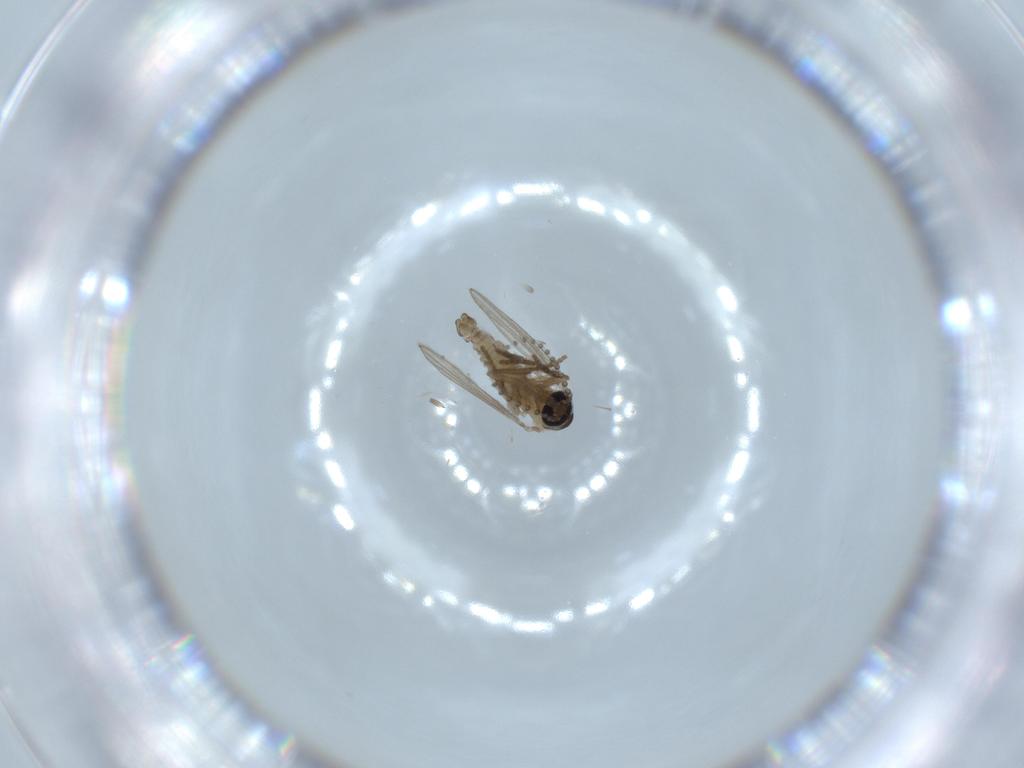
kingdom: Animalia
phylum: Arthropoda
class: Insecta
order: Diptera
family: Psychodidae
